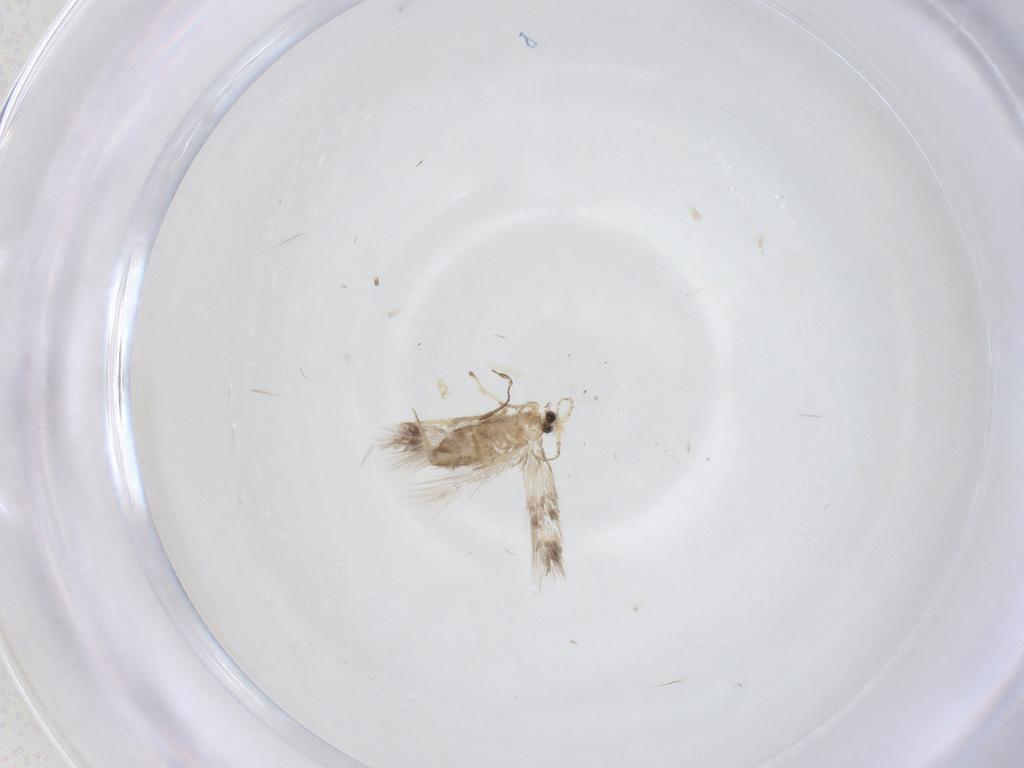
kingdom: Animalia
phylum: Arthropoda
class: Insecta
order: Lepidoptera
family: Nepticulidae
